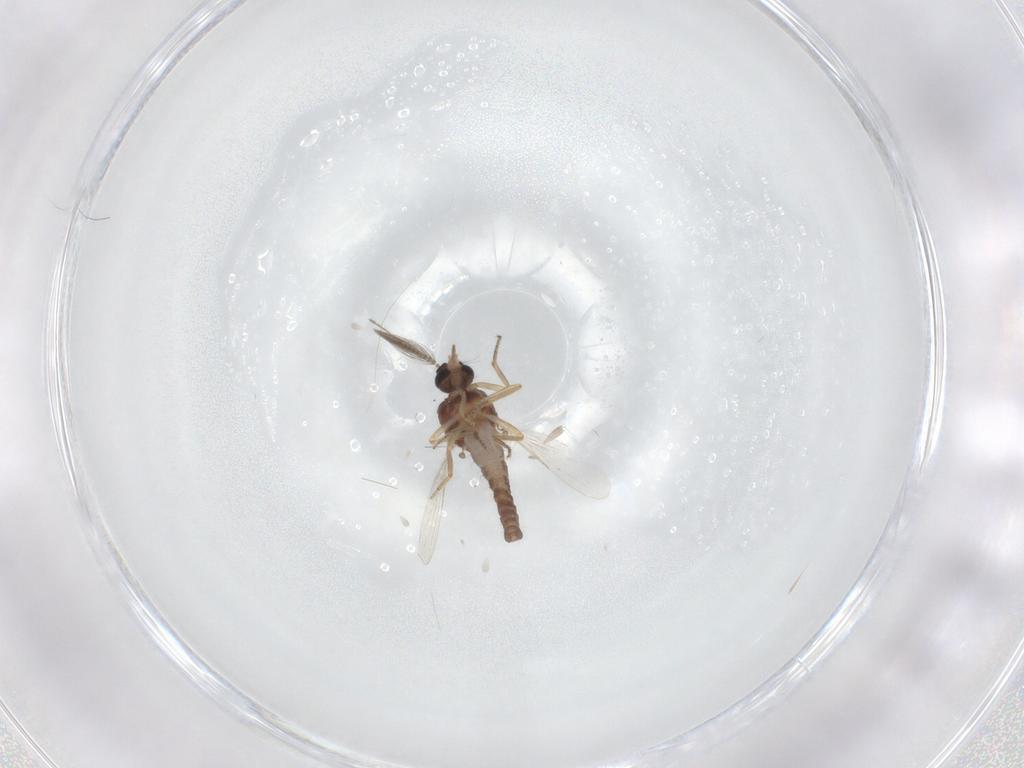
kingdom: Animalia
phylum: Arthropoda
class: Insecta
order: Diptera
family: Ceratopogonidae
